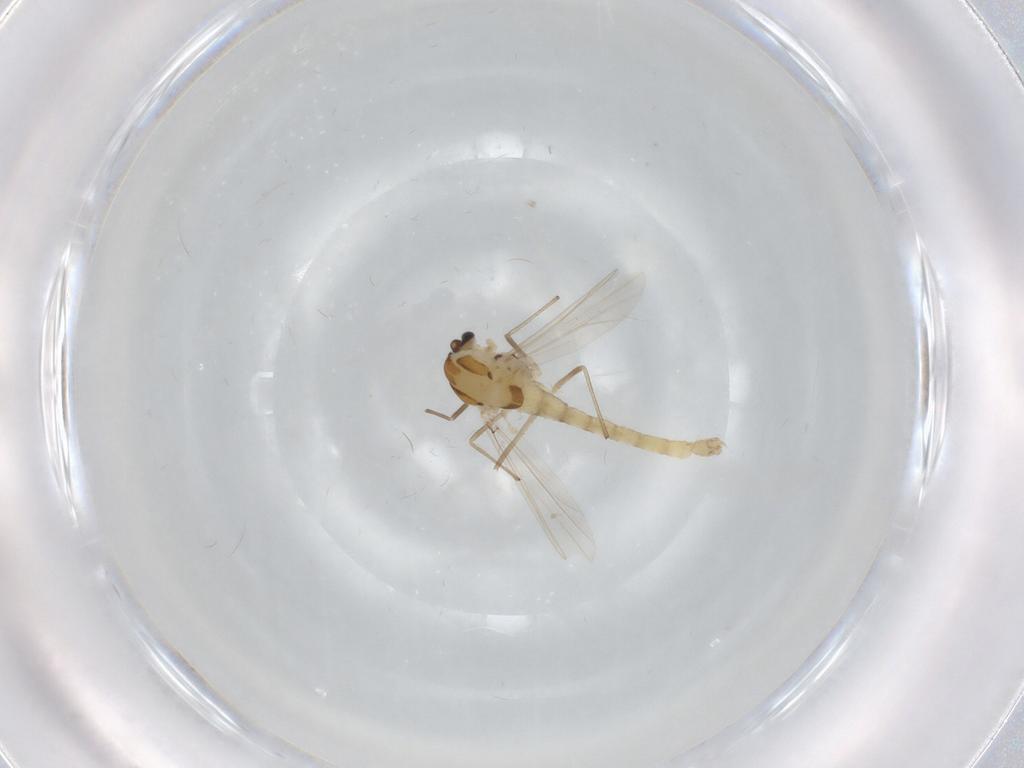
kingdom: Animalia
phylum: Arthropoda
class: Insecta
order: Diptera
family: Chironomidae
